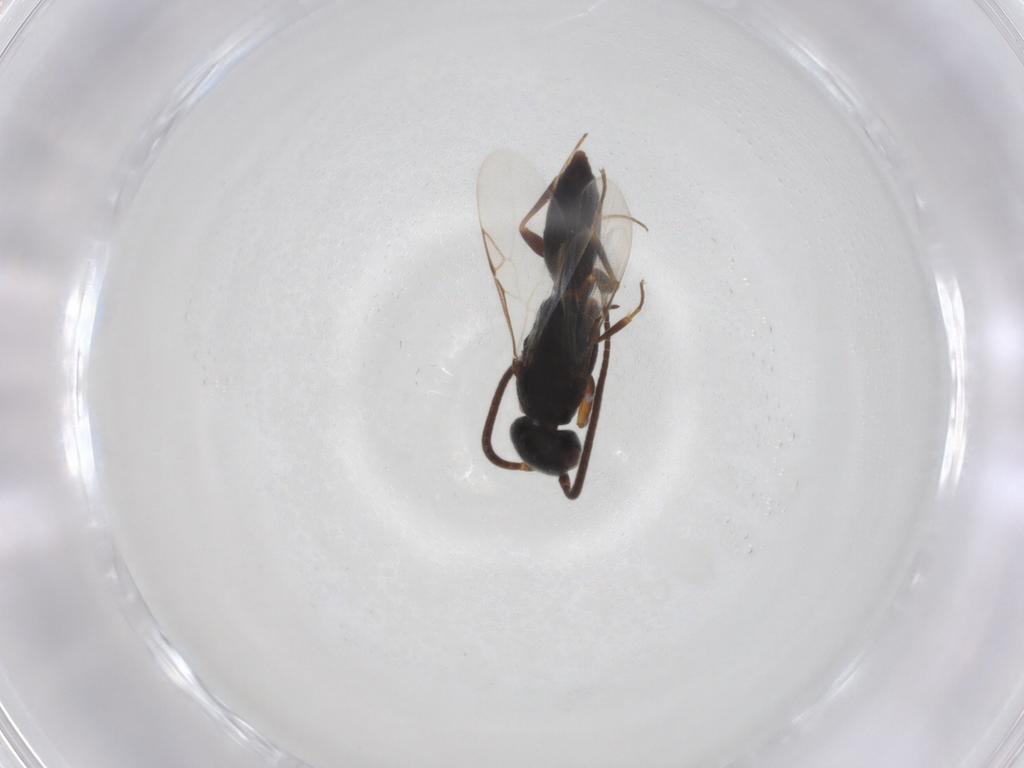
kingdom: Animalia
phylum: Arthropoda
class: Insecta
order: Hymenoptera
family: Sclerogibbidae
